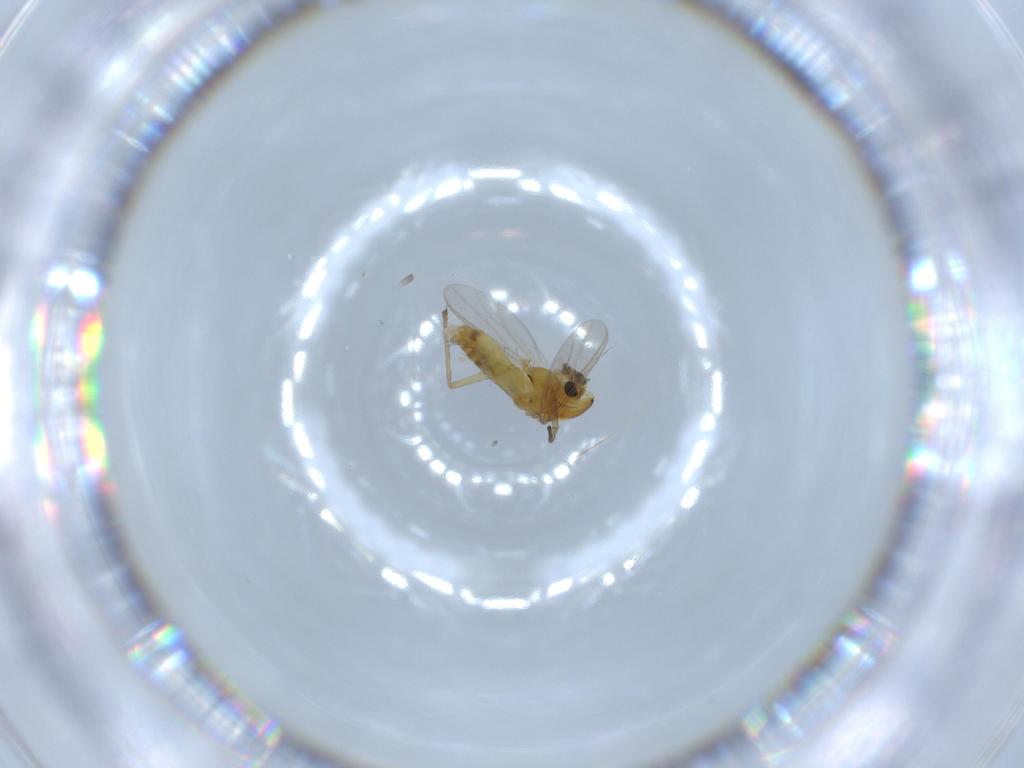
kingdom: Animalia
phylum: Arthropoda
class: Insecta
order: Diptera
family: Chironomidae
